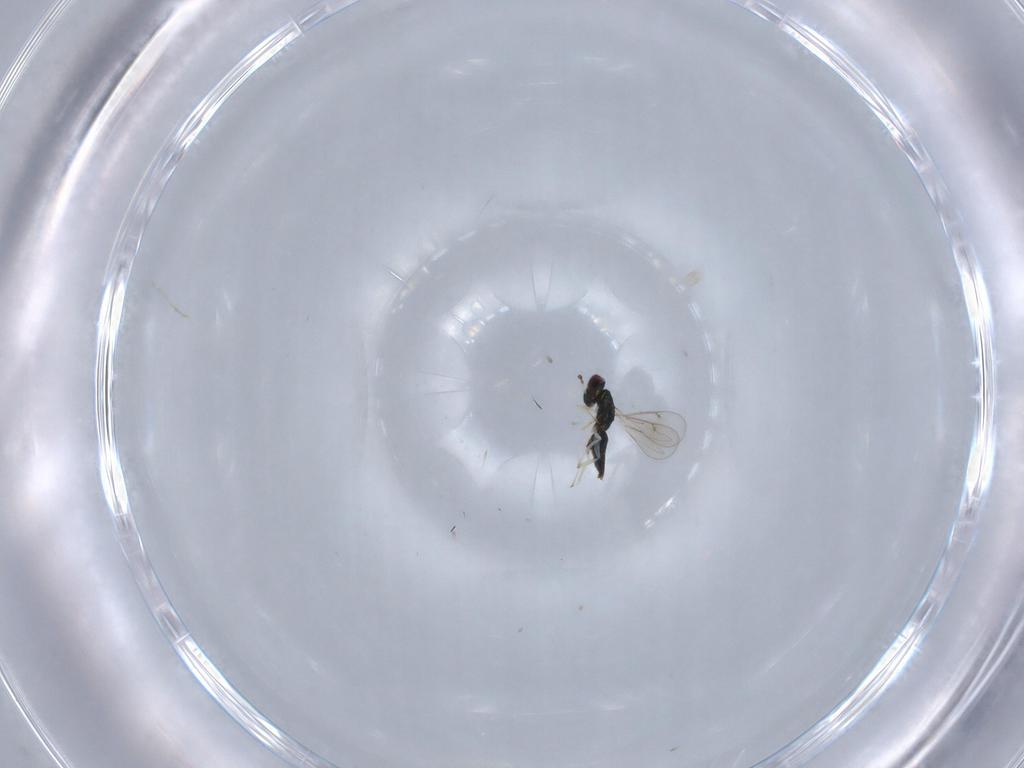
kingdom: Animalia
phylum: Arthropoda
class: Insecta
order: Hymenoptera
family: Eulophidae
